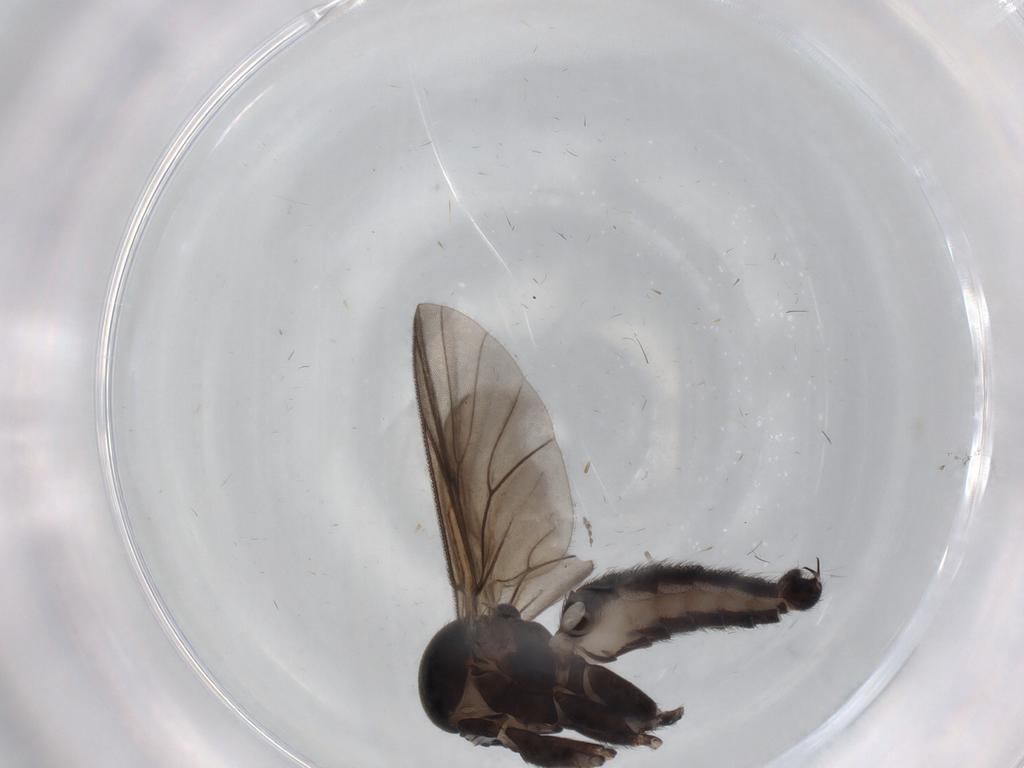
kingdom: Animalia
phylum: Arthropoda
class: Insecta
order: Diptera
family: Mycetophilidae
